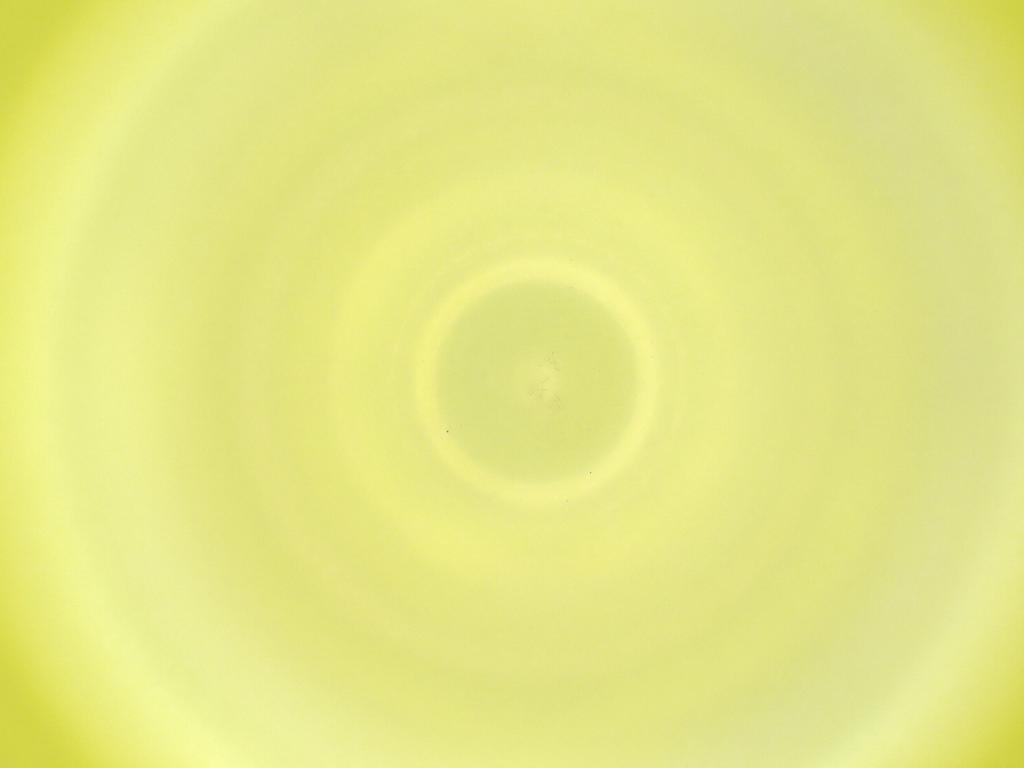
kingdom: Animalia
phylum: Arthropoda
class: Insecta
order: Diptera
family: Cecidomyiidae
